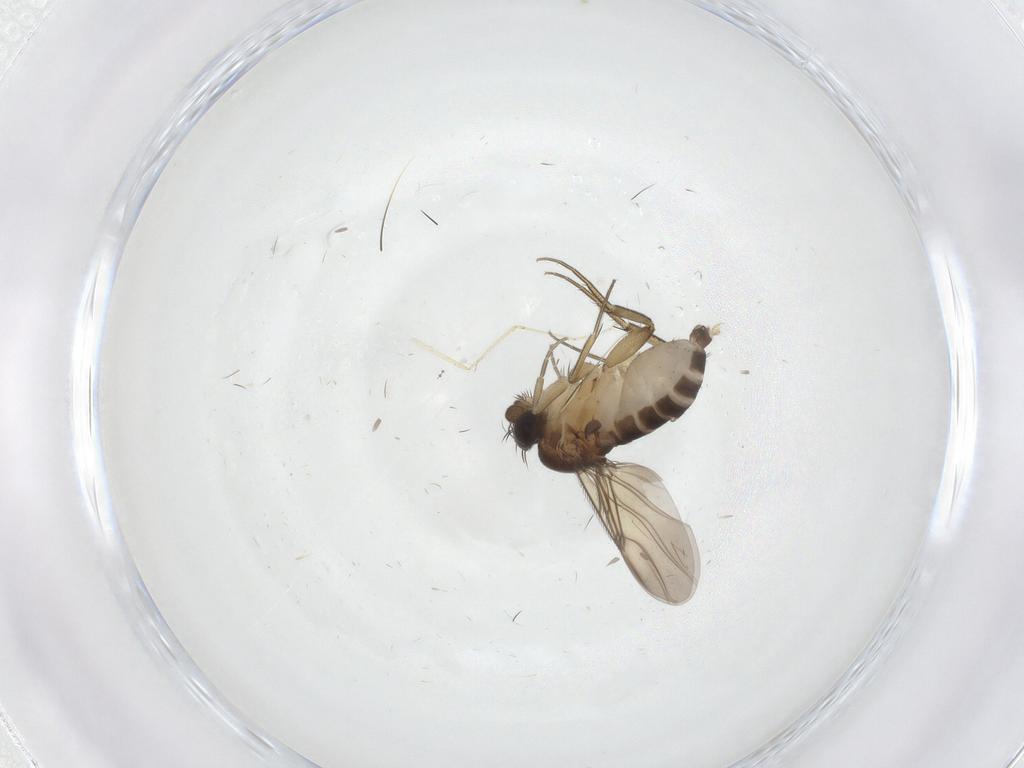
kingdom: Animalia
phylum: Arthropoda
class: Insecta
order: Diptera
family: Phoridae
